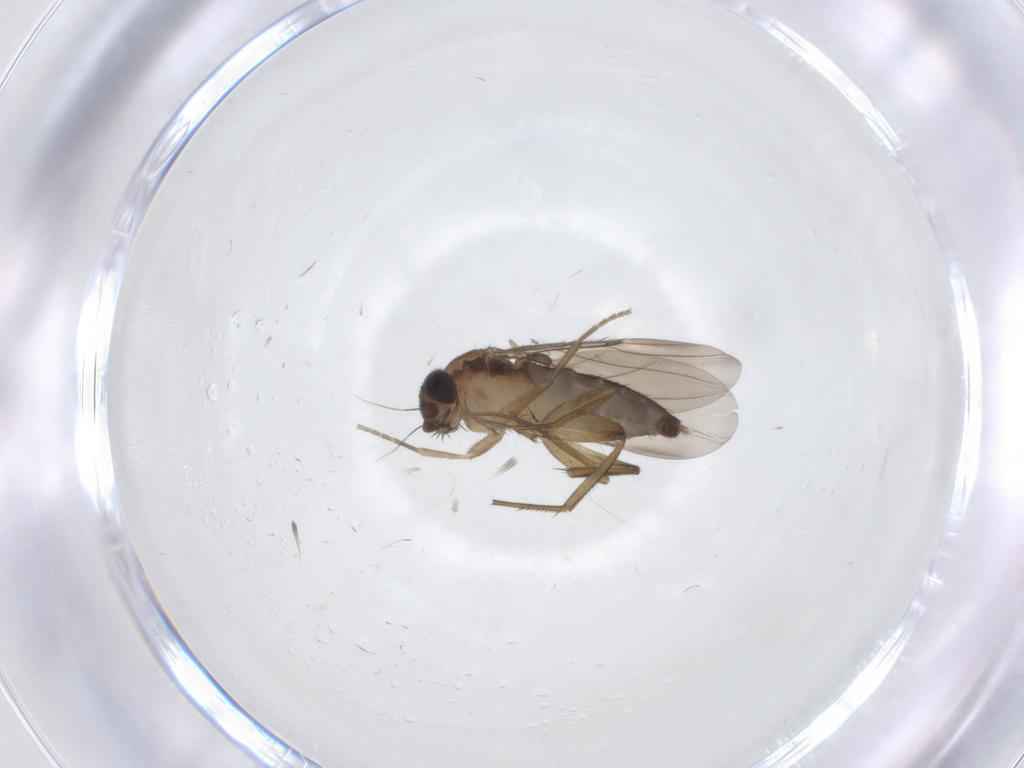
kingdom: Animalia
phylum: Arthropoda
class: Insecta
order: Diptera
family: Phoridae
